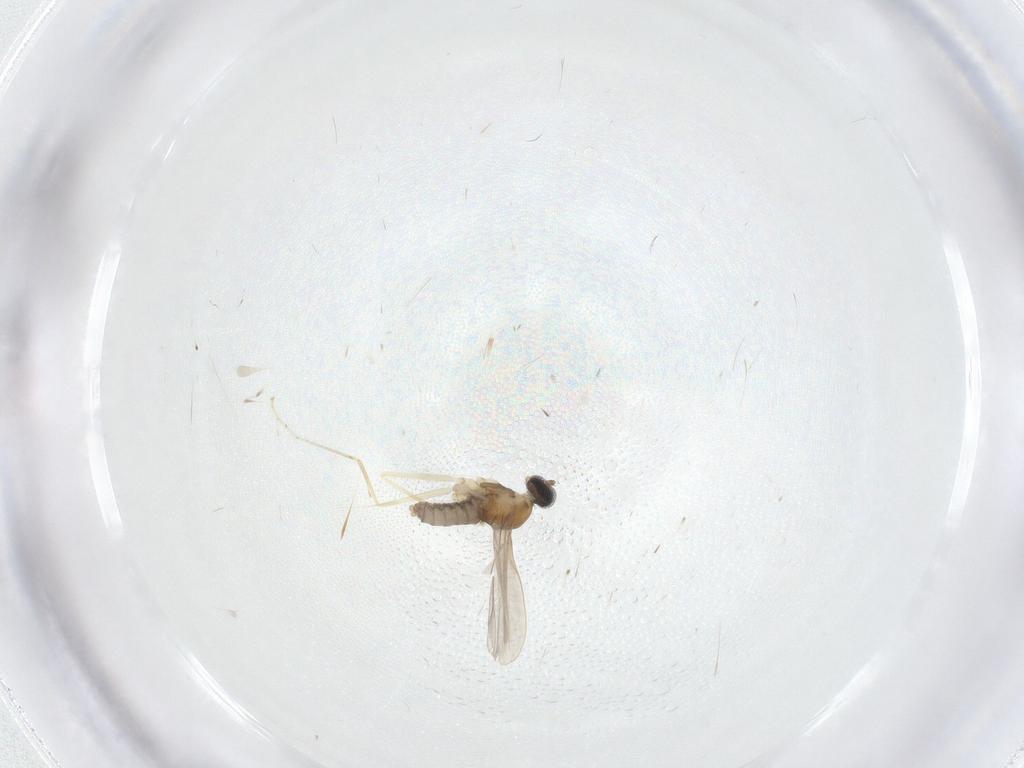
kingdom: Animalia
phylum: Arthropoda
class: Insecta
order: Diptera
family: Cecidomyiidae
